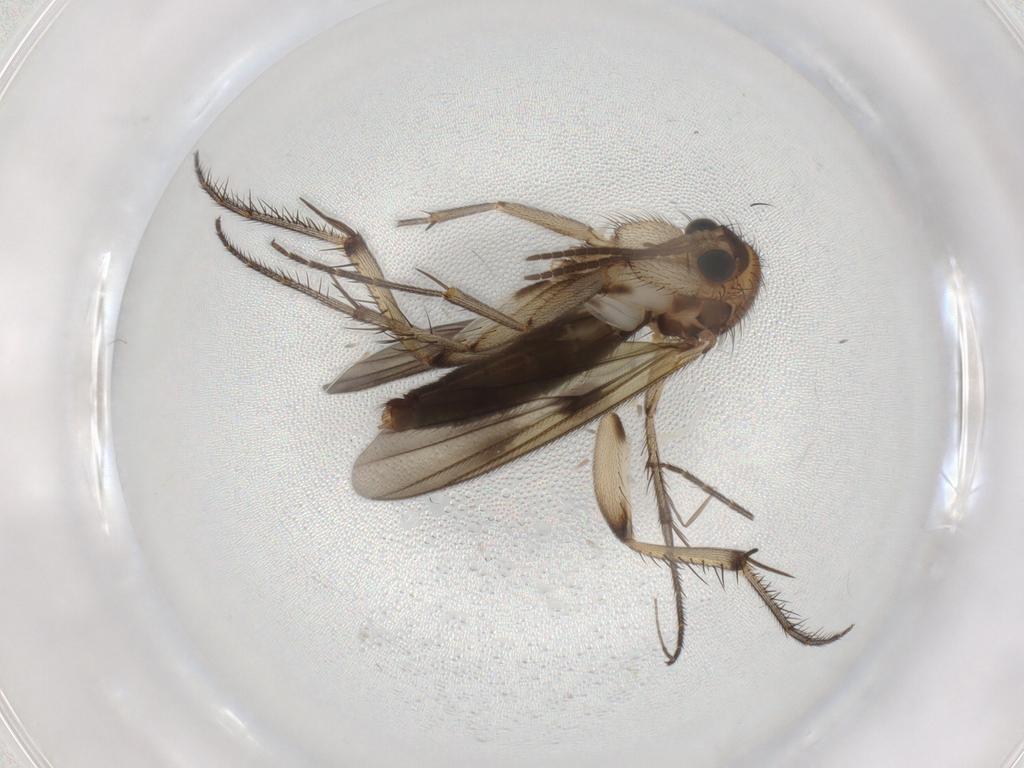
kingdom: Animalia
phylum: Arthropoda
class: Insecta
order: Diptera
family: Mycetophilidae
